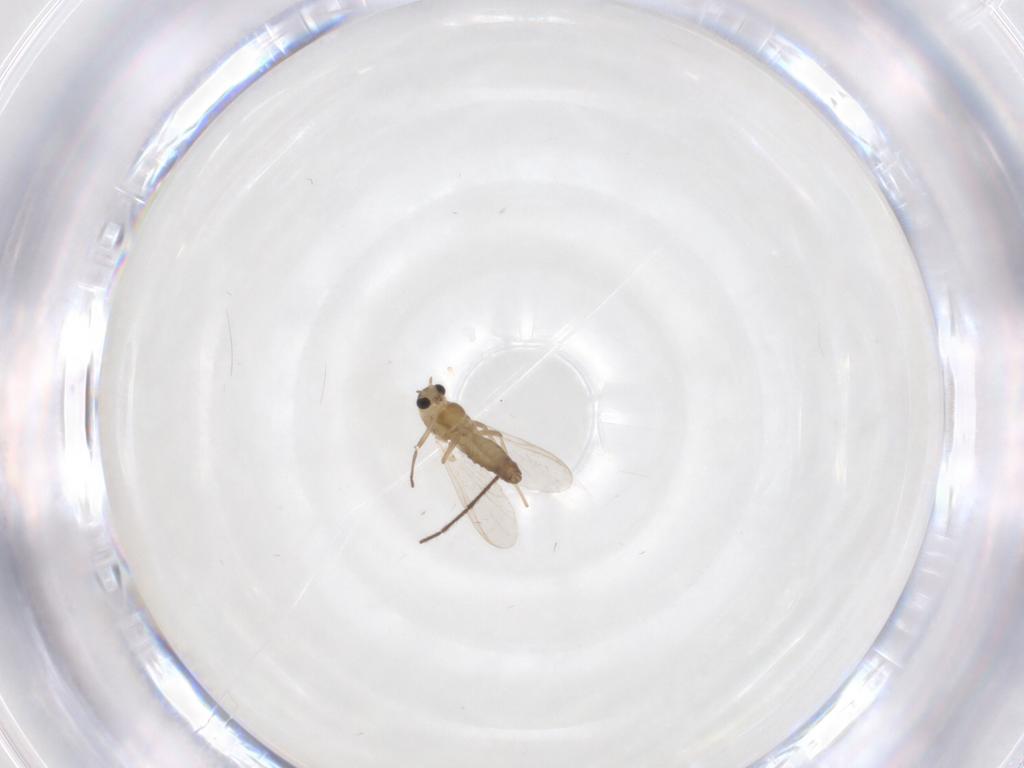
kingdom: Animalia
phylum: Arthropoda
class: Insecta
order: Diptera
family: Chironomidae
